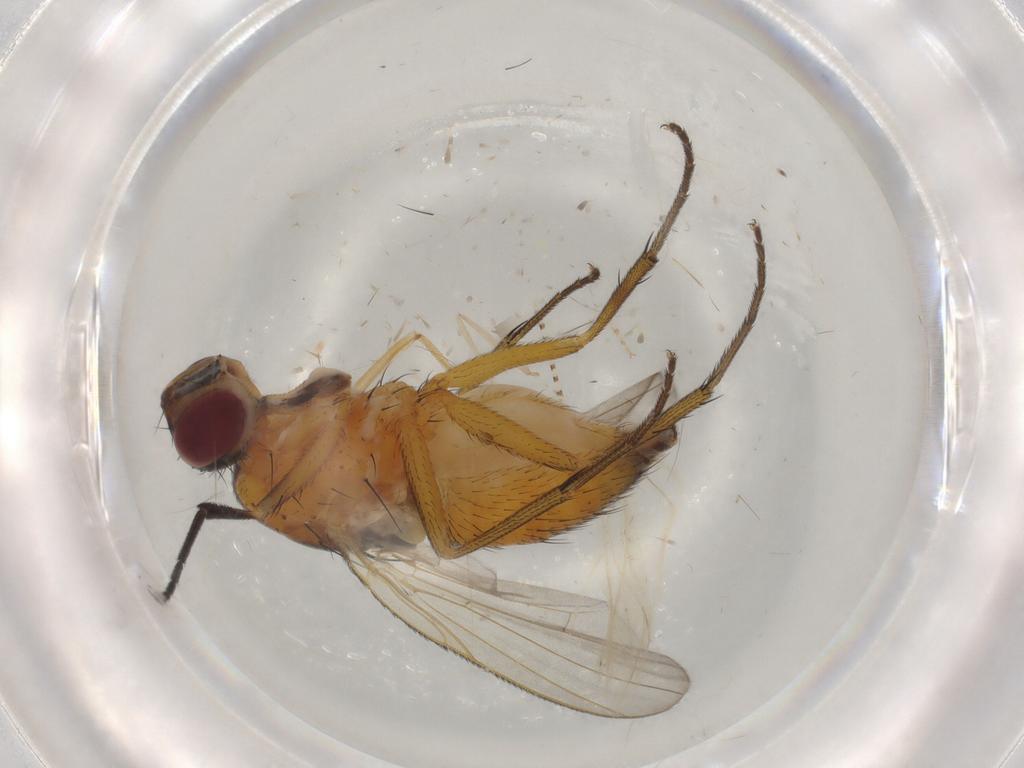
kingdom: Animalia
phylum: Arthropoda
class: Insecta
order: Diptera
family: Muscidae
